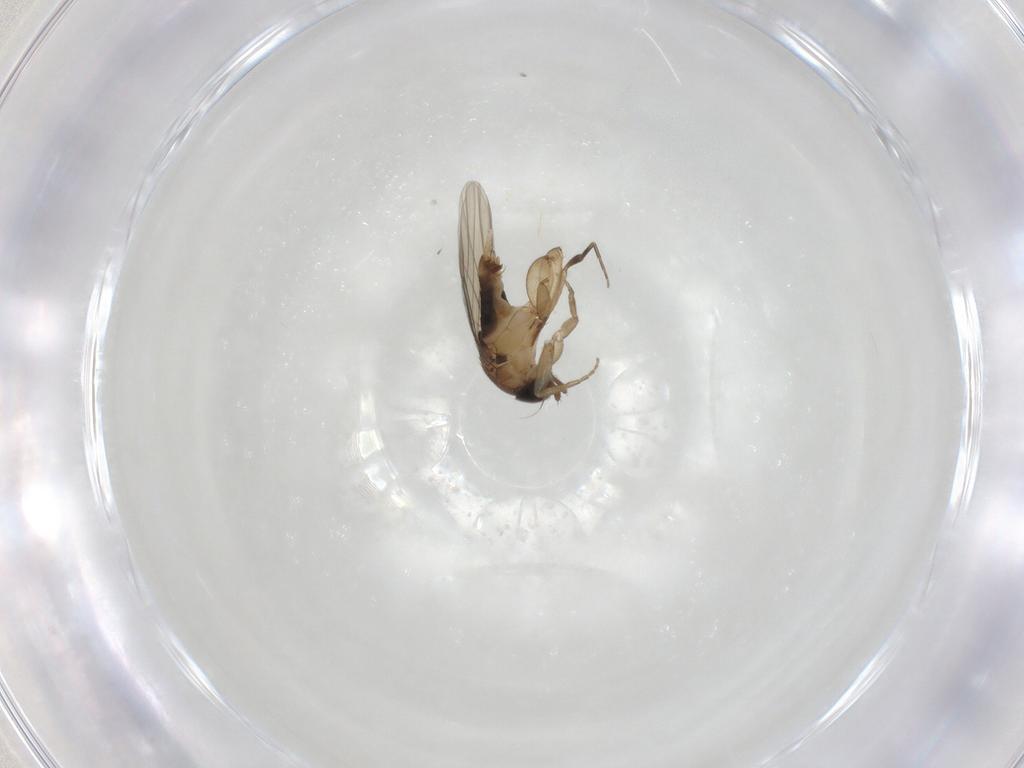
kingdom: Animalia
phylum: Arthropoda
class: Insecta
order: Diptera
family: Phoridae
